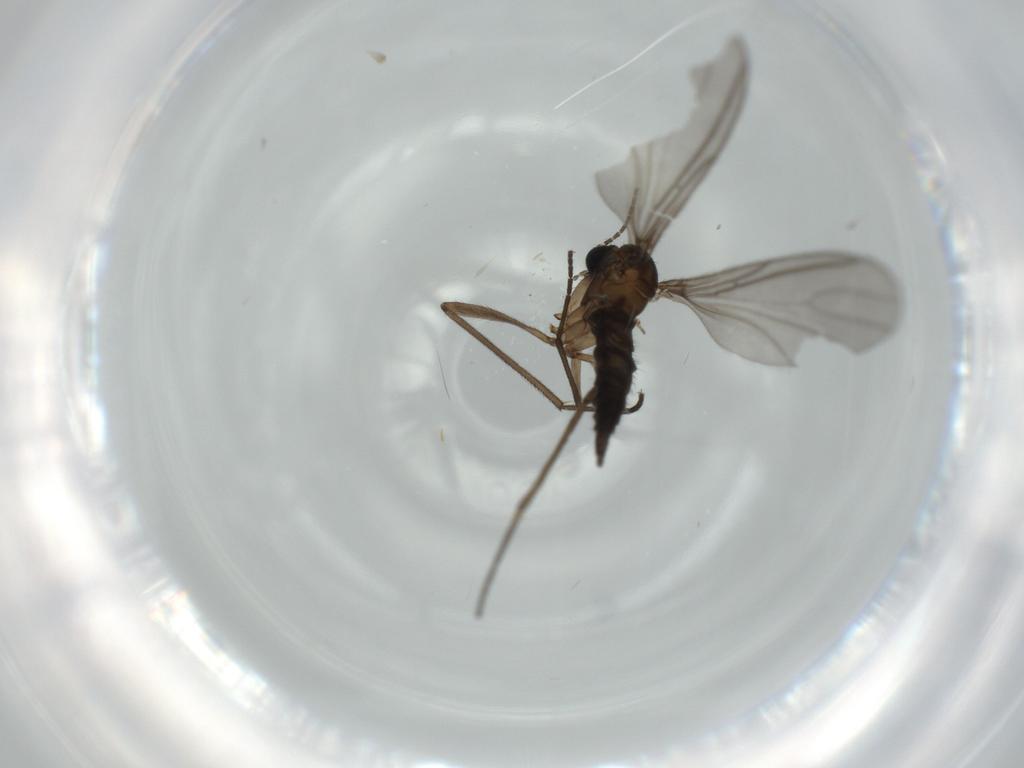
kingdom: Animalia
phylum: Arthropoda
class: Insecta
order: Diptera
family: Sciaridae
